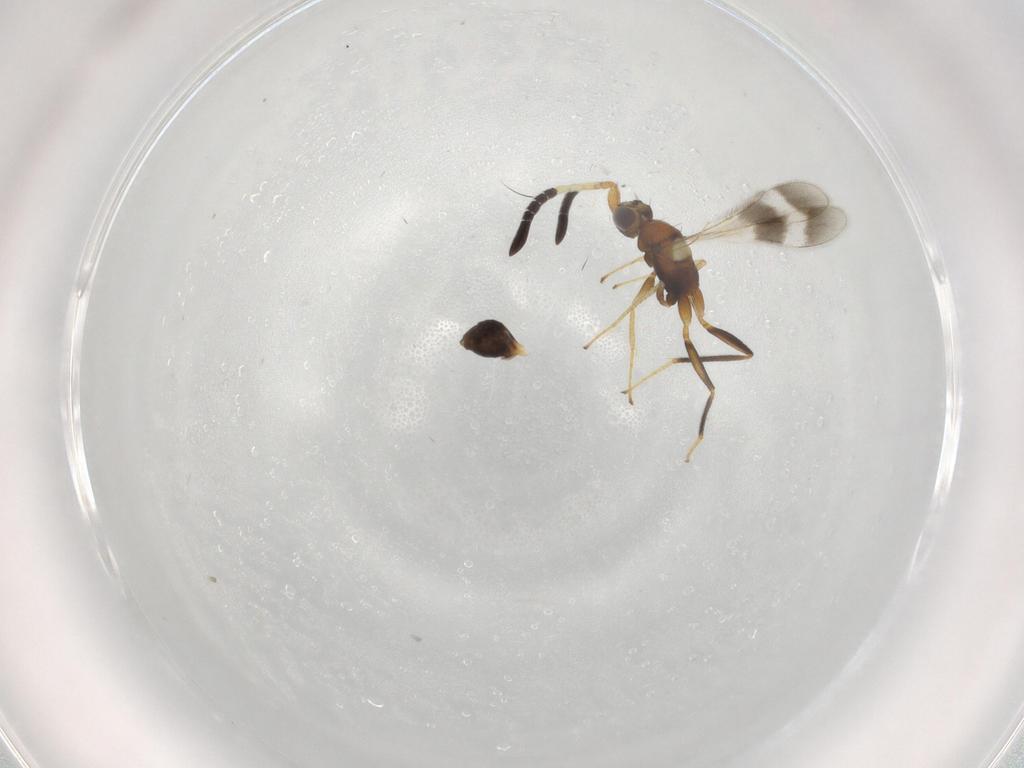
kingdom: Animalia
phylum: Arthropoda
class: Insecta
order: Hymenoptera
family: Mymaridae
